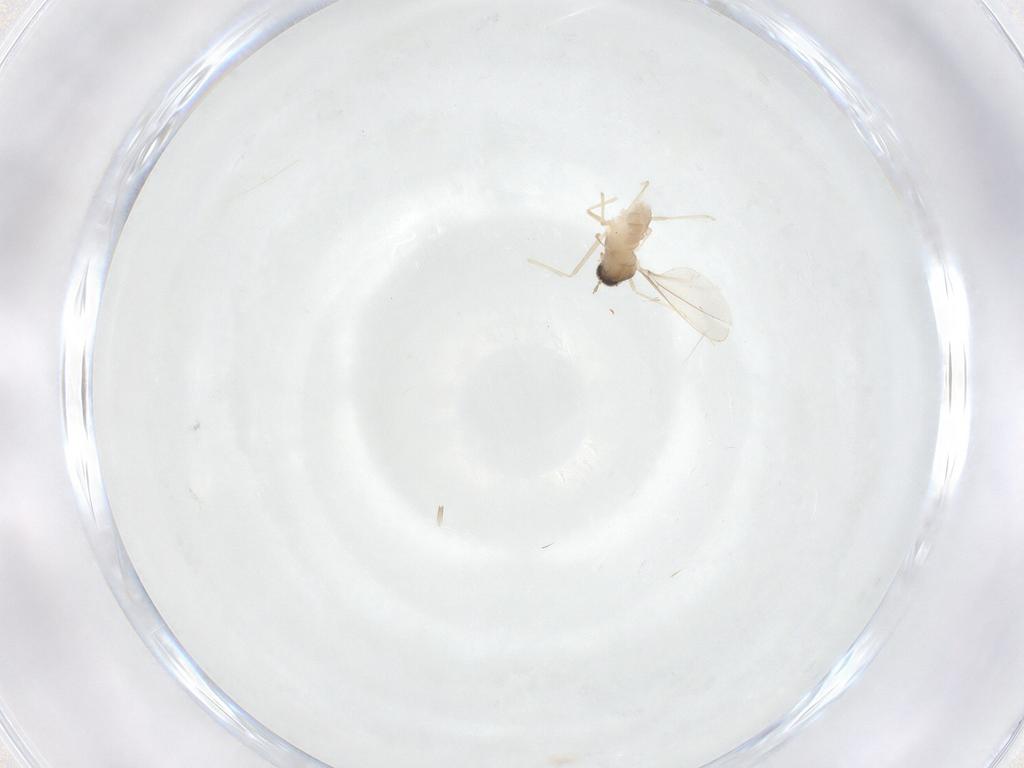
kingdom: Animalia
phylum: Arthropoda
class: Insecta
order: Diptera
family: Cecidomyiidae
